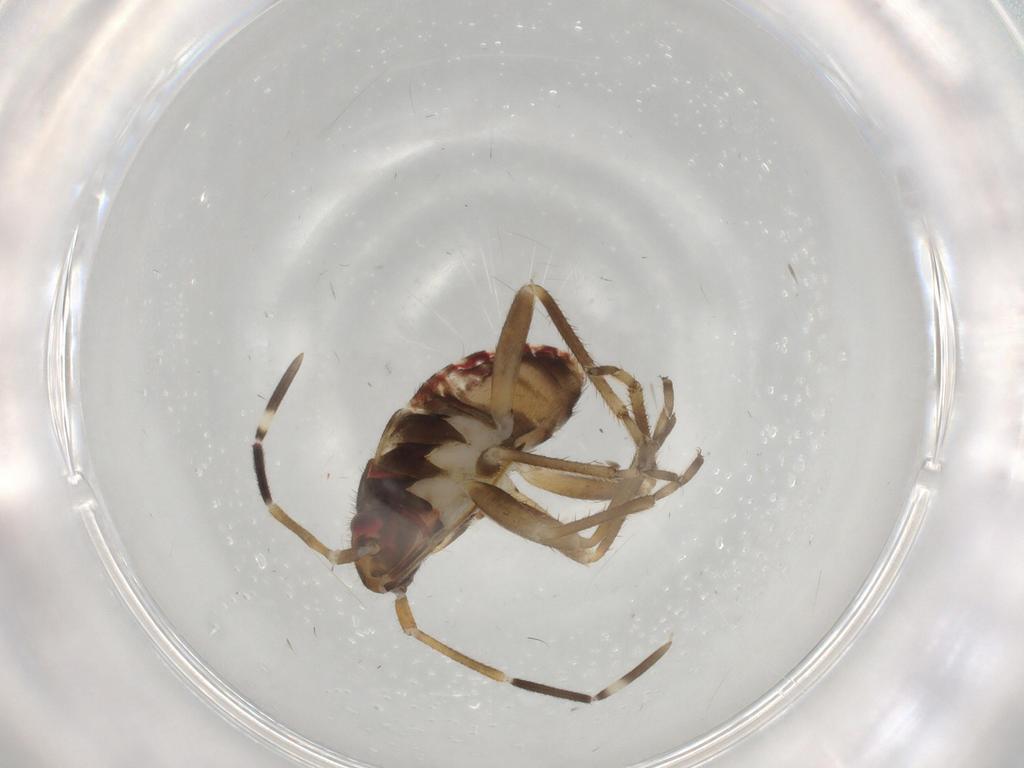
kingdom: Animalia
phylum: Arthropoda
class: Insecta
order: Hemiptera
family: Rhyparochromidae
